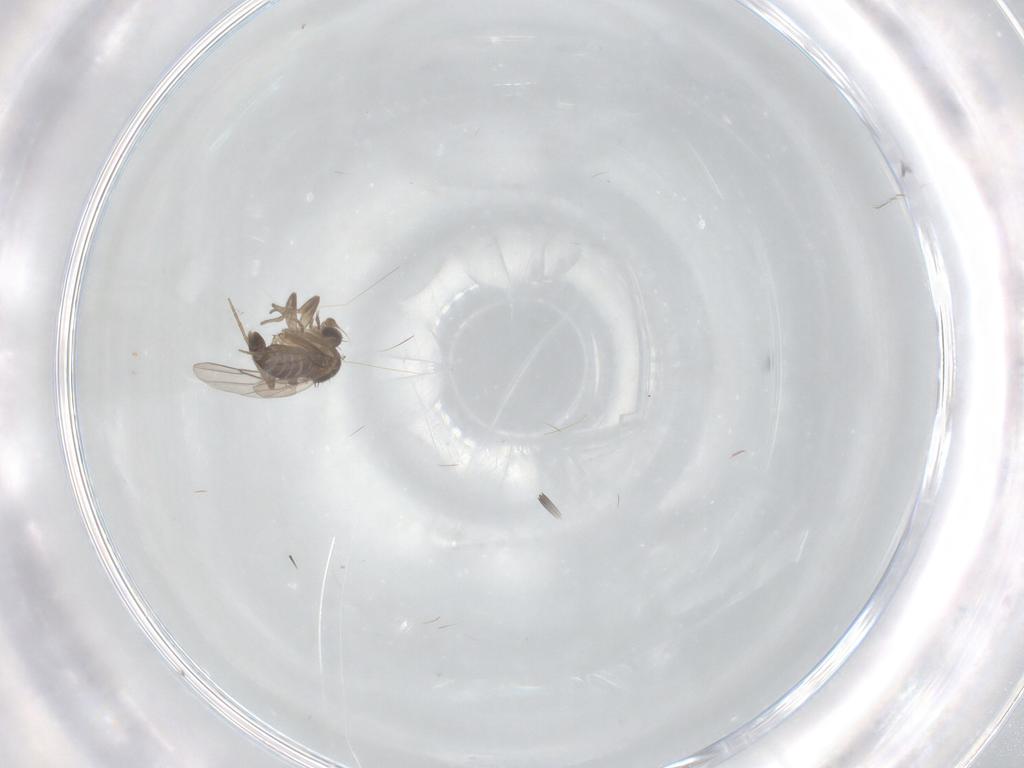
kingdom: Animalia
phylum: Arthropoda
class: Insecta
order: Diptera
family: Phoridae
